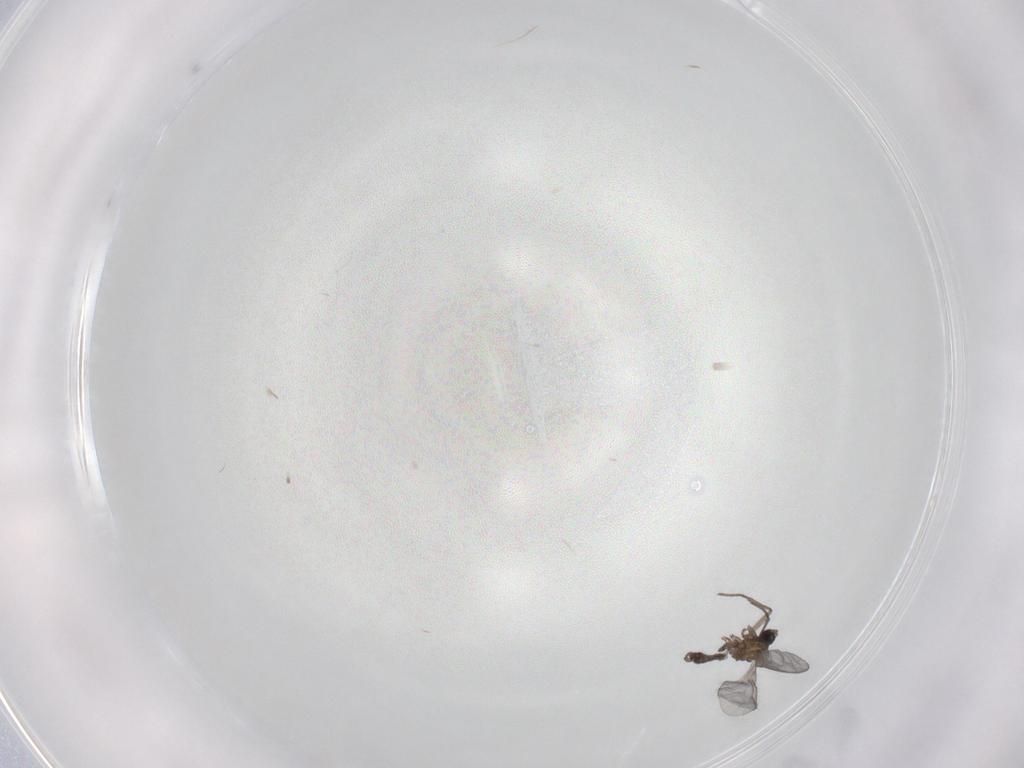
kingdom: Animalia
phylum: Arthropoda
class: Insecta
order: Diptera
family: Sciaridae
